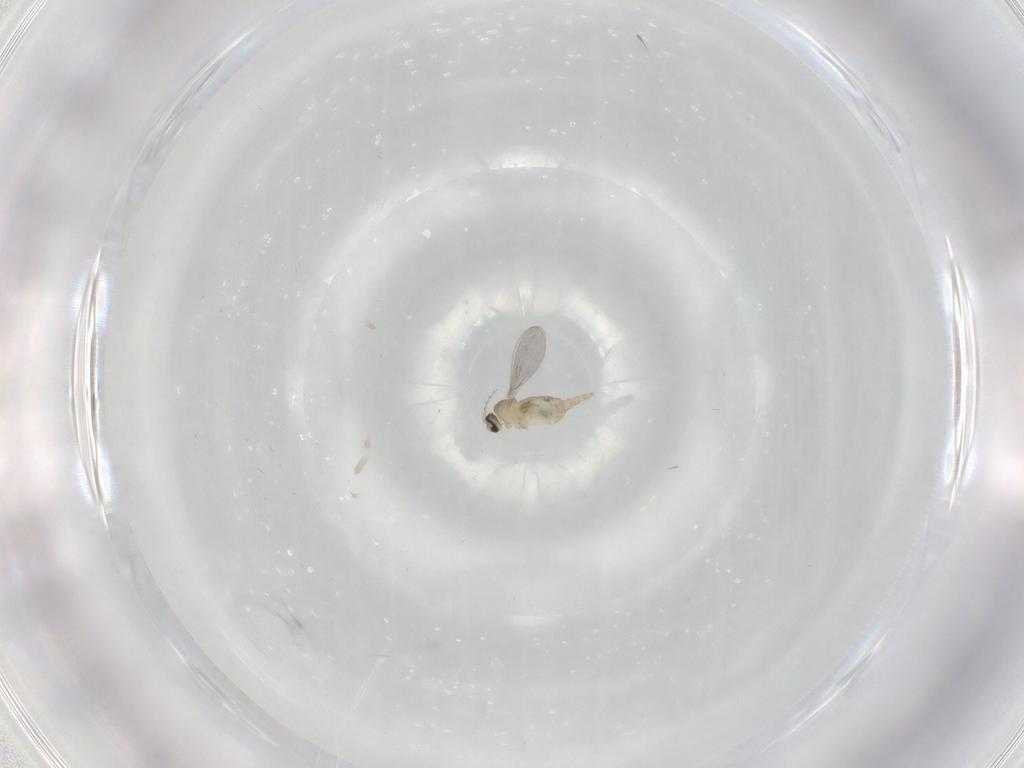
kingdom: Animalia
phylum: Arthropoda
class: Insecta
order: Diptera
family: Cecidomyiidae
